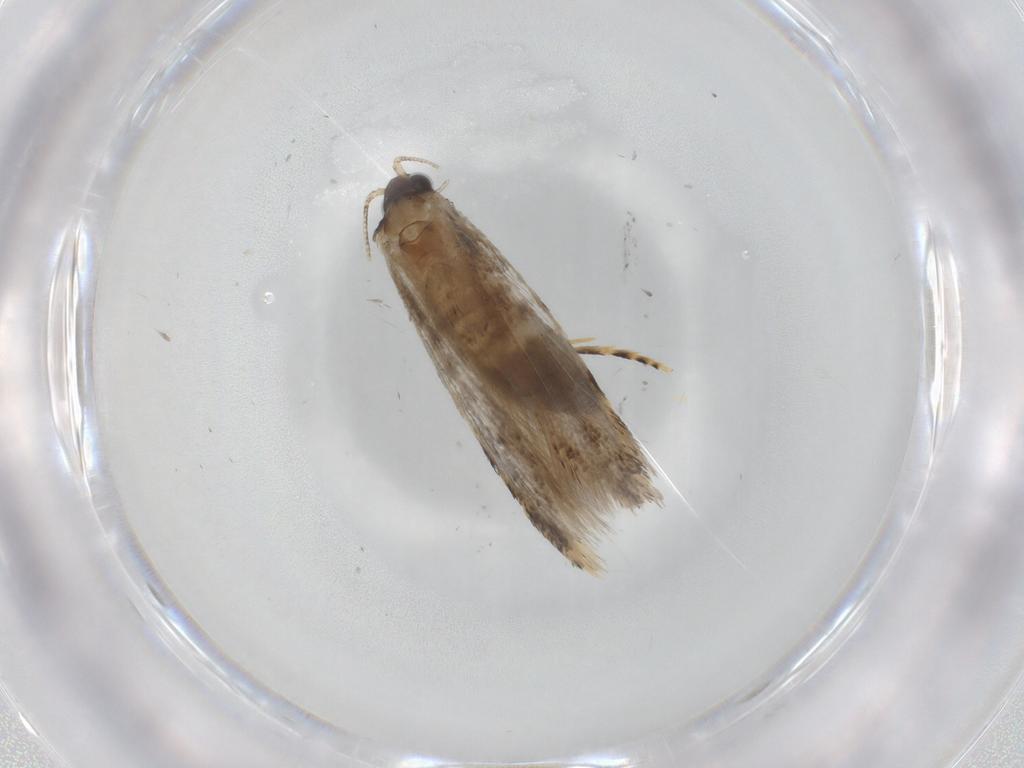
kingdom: Animalia
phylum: Arthropoda
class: Insecta
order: Lepidoptera
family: Tineidae
